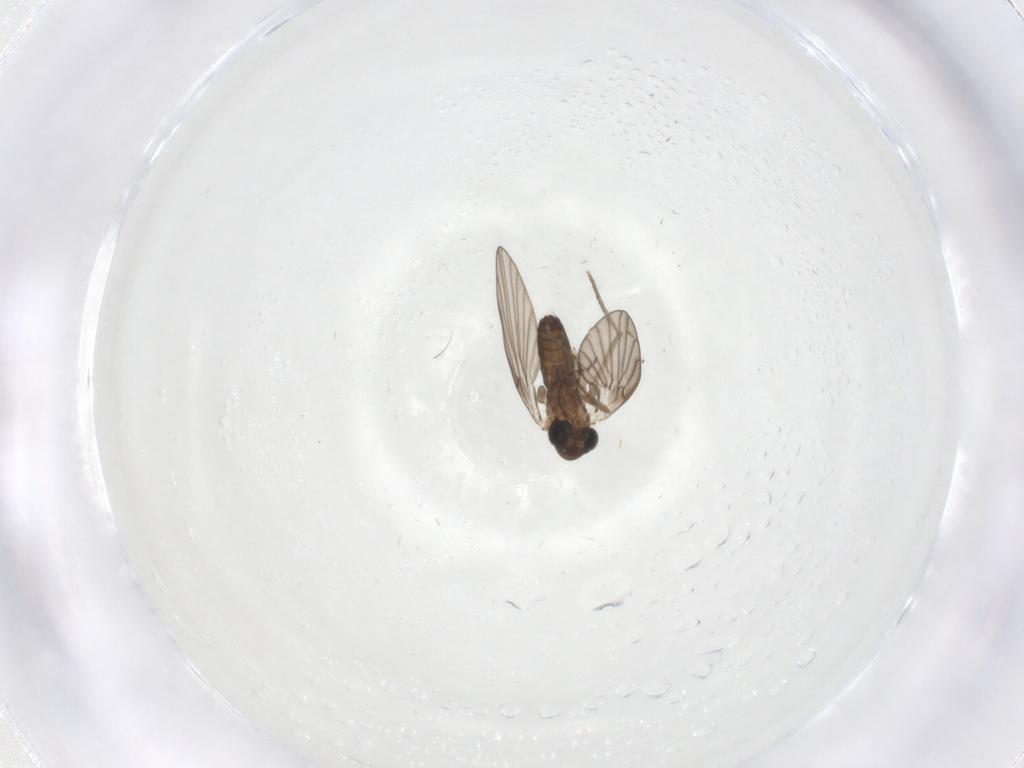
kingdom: Animalia
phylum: Arthropoda
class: Insecta
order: Diptera
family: Psychodidae
